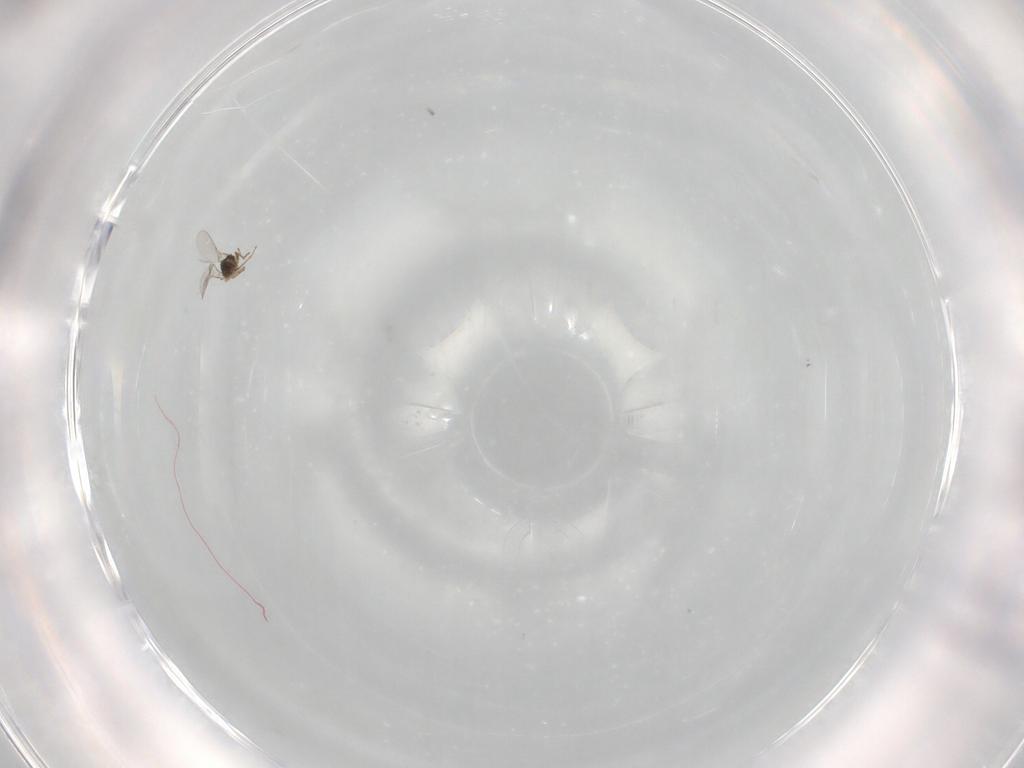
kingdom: Animalia
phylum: Arthropoda
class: Insecta
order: Hymenoptera
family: Encyrtidae
